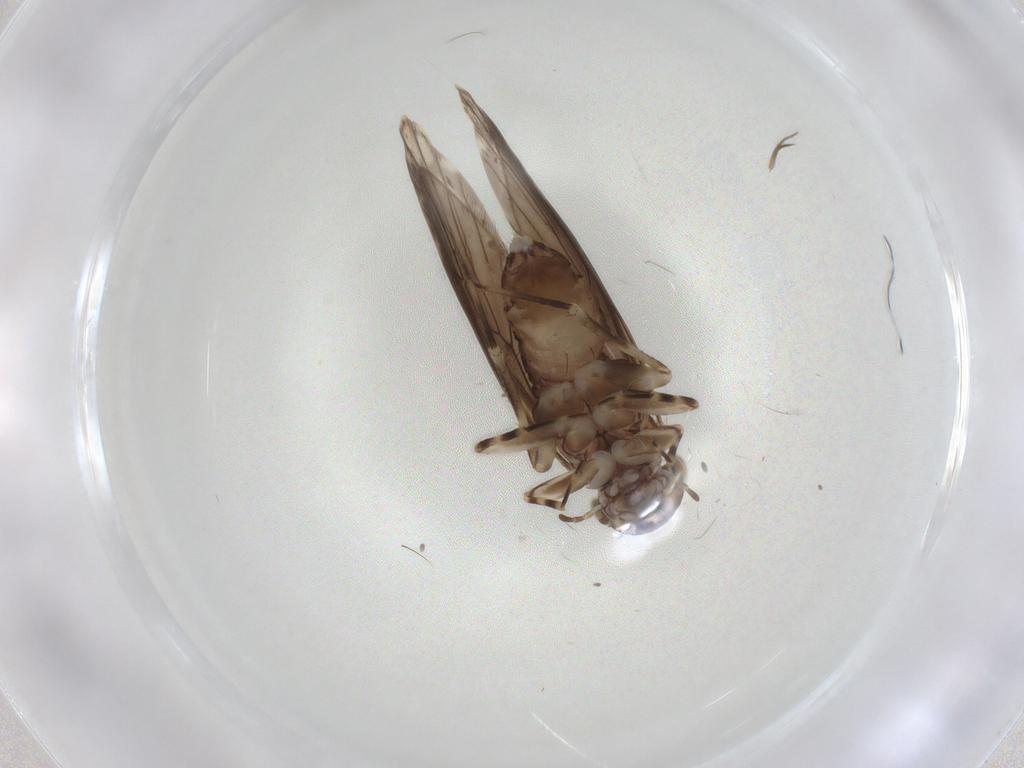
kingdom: Animalia
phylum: Arthropoda
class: Insecta
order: Psocodea
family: Amphientomidae
